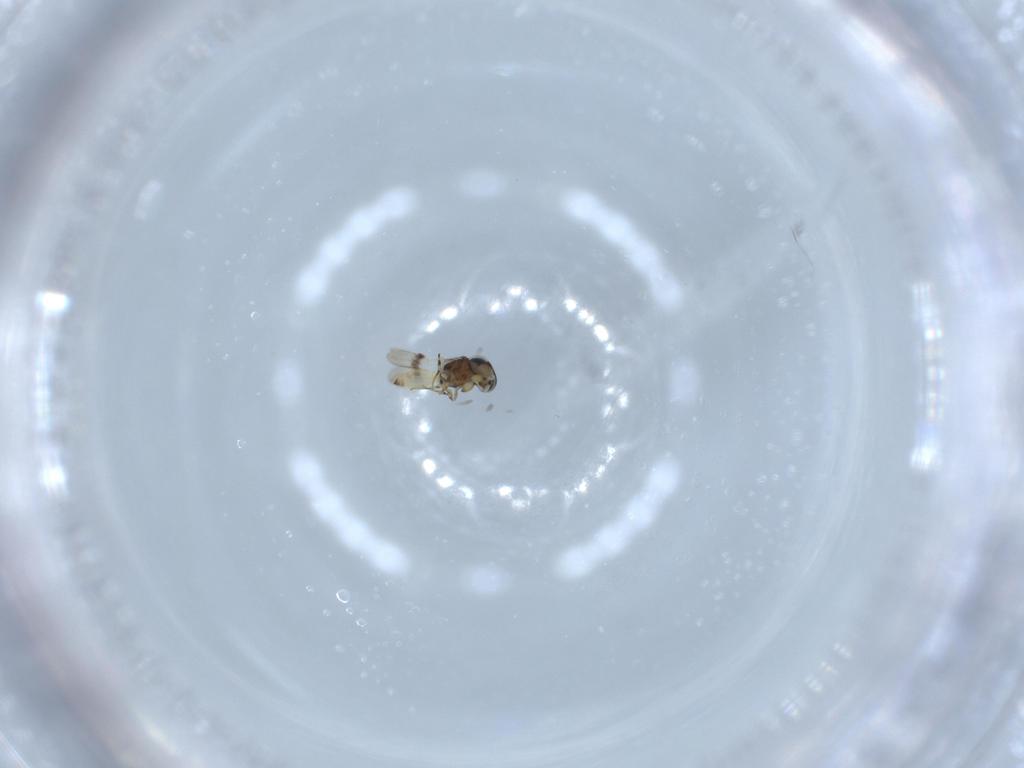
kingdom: Animalia
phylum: Arthropoda
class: Insecta
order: Hymenoptera
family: Scelionidae
